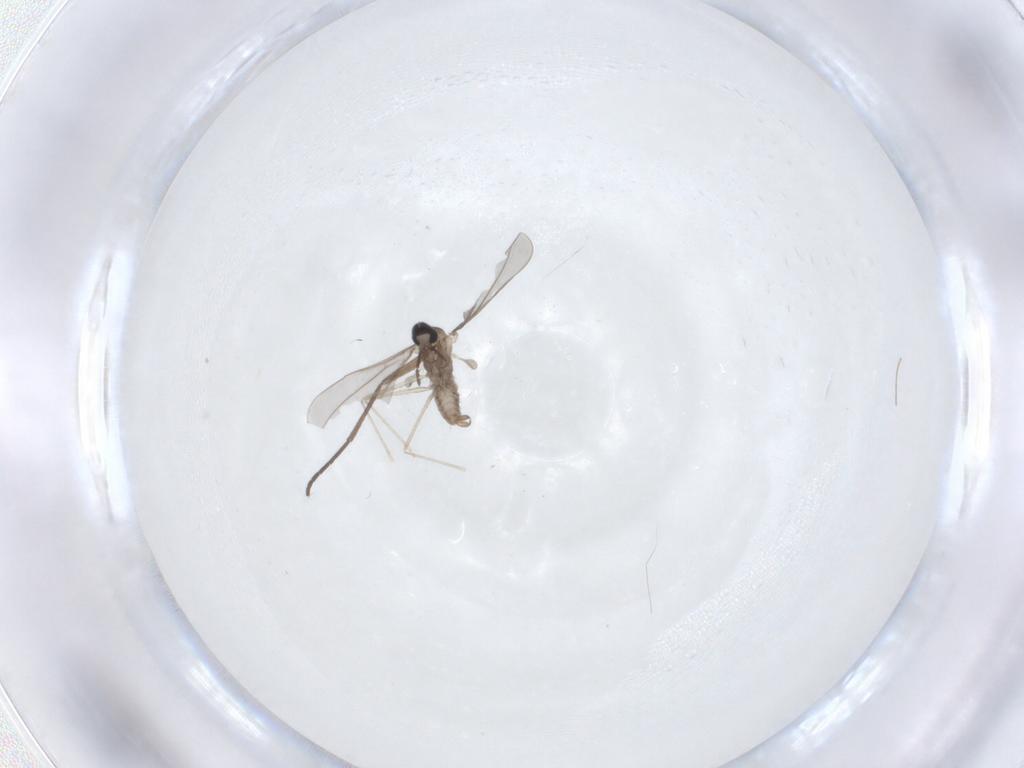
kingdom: Animalia
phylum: Arthropoda
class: Insecta
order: Diptera
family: Cecidomyiidae
